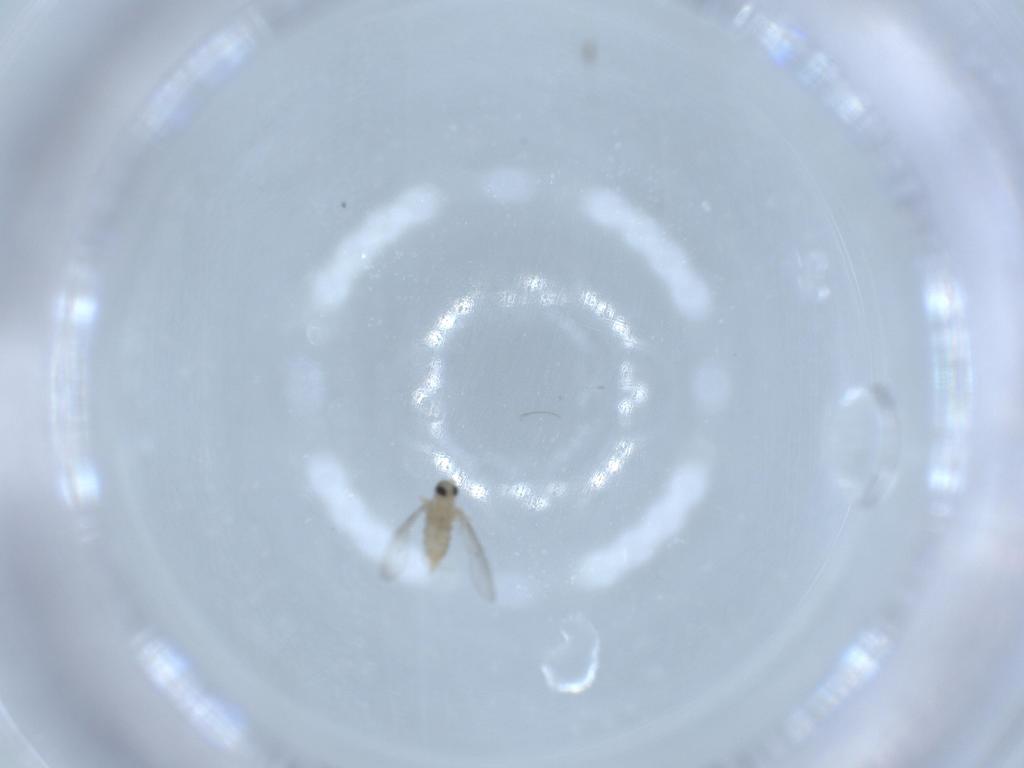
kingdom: Animalia
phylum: Arthropoda
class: Insecta
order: Diptera
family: Cecidomyiidae
